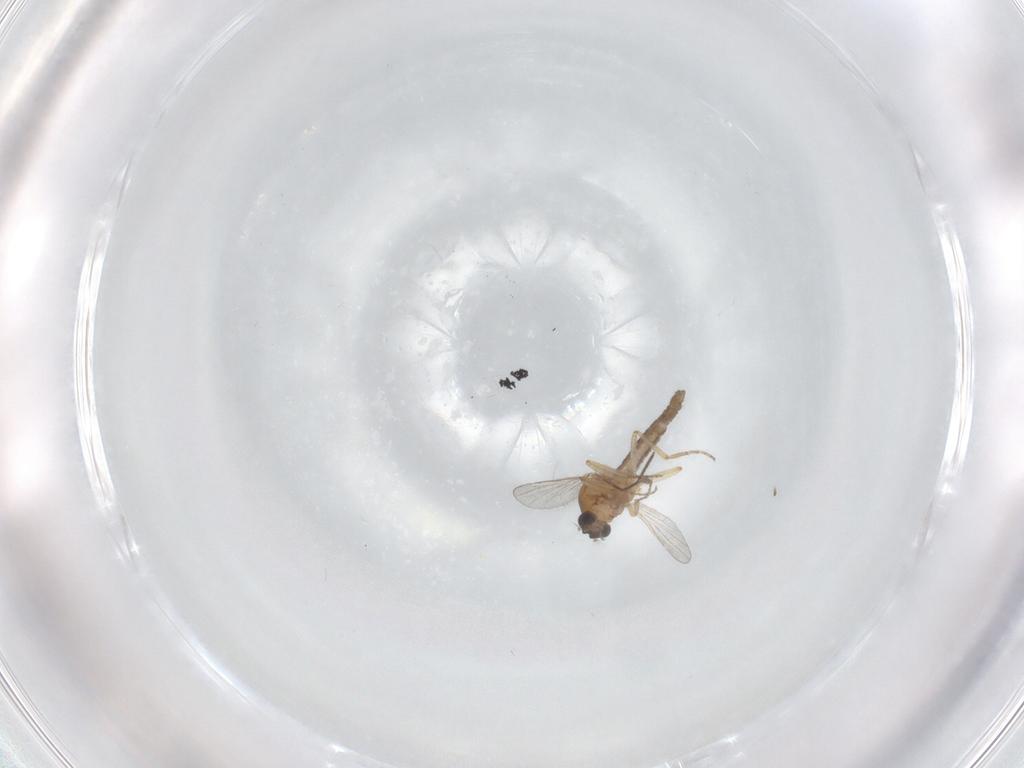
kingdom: Animalia
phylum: Arthropoda
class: Insecta
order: Diptera
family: Chironomidae
